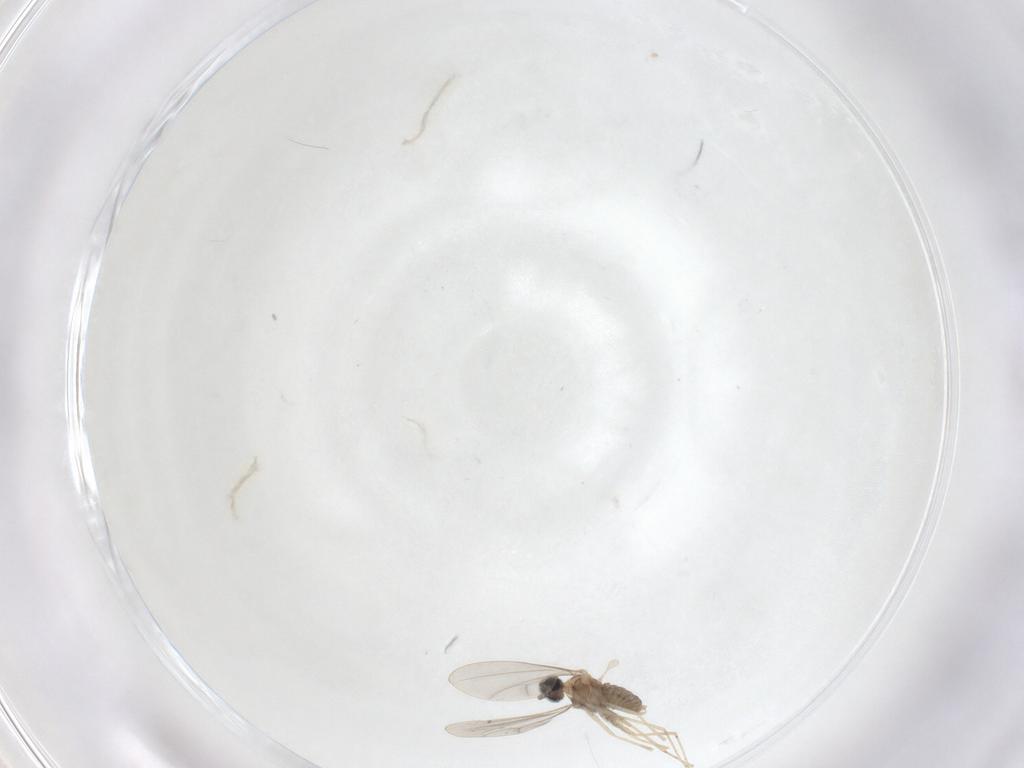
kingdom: Animalia
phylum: Arthropoda
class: Insecta
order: Diptera
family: Cecidomyiidae
